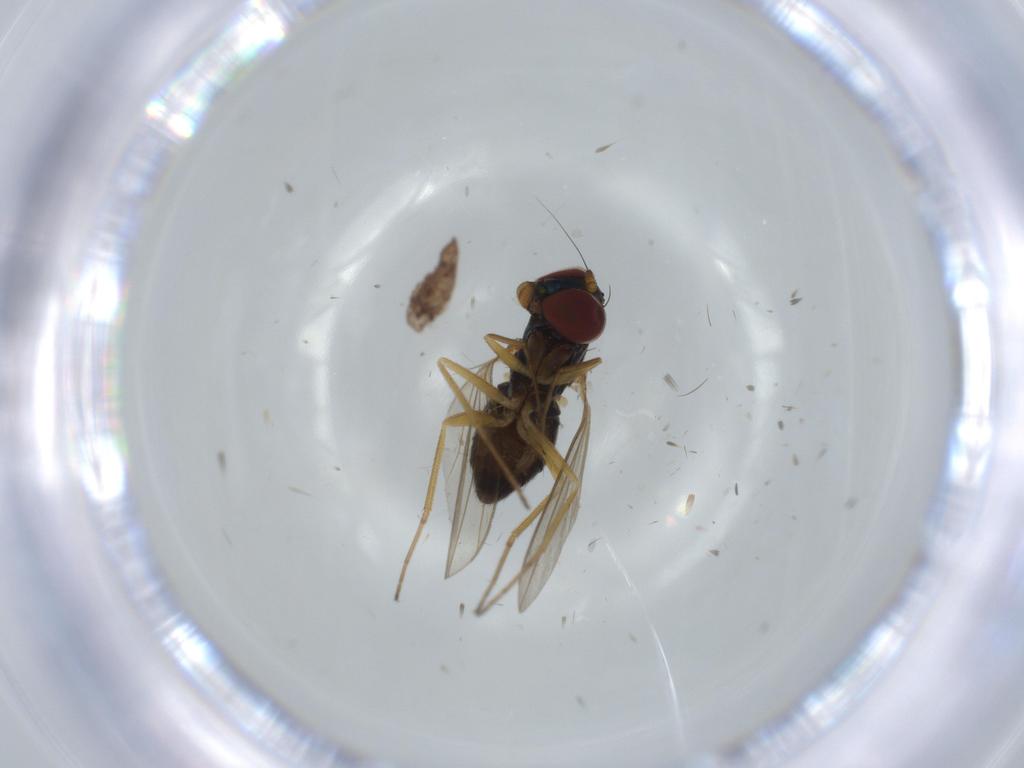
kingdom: Animalia
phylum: Arthropoda
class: Insecta
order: Diptera
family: Dolichopodidae
